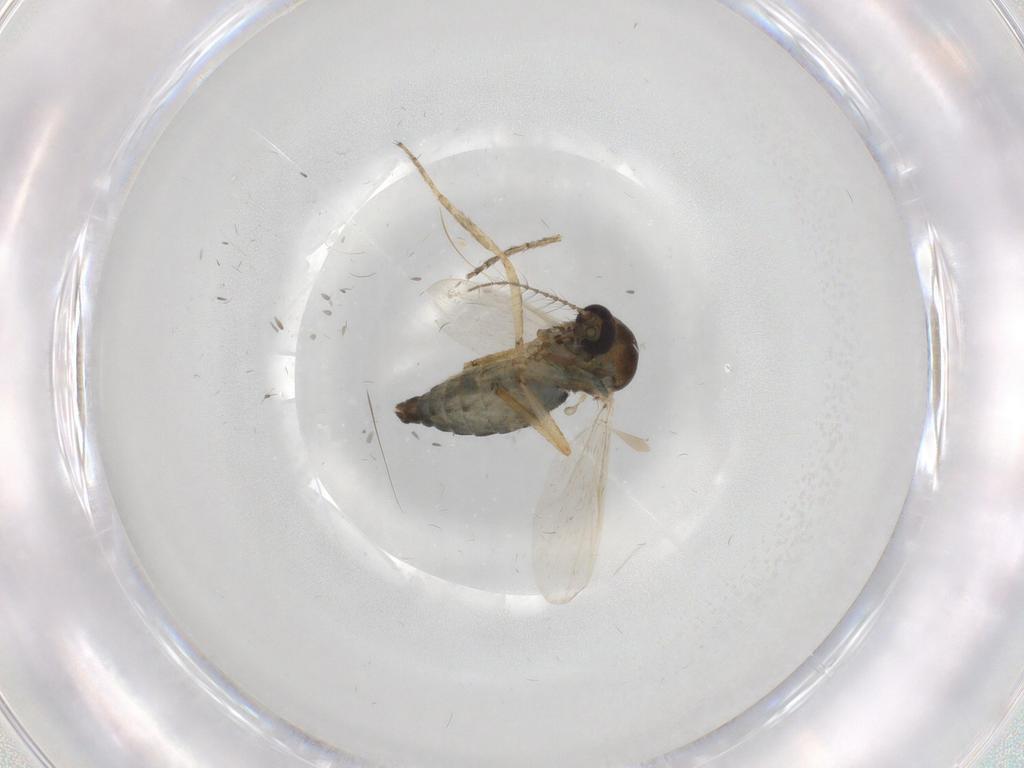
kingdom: Animalia
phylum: Arthropoda
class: Insecta
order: Diptera
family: Ceratopogonidae
